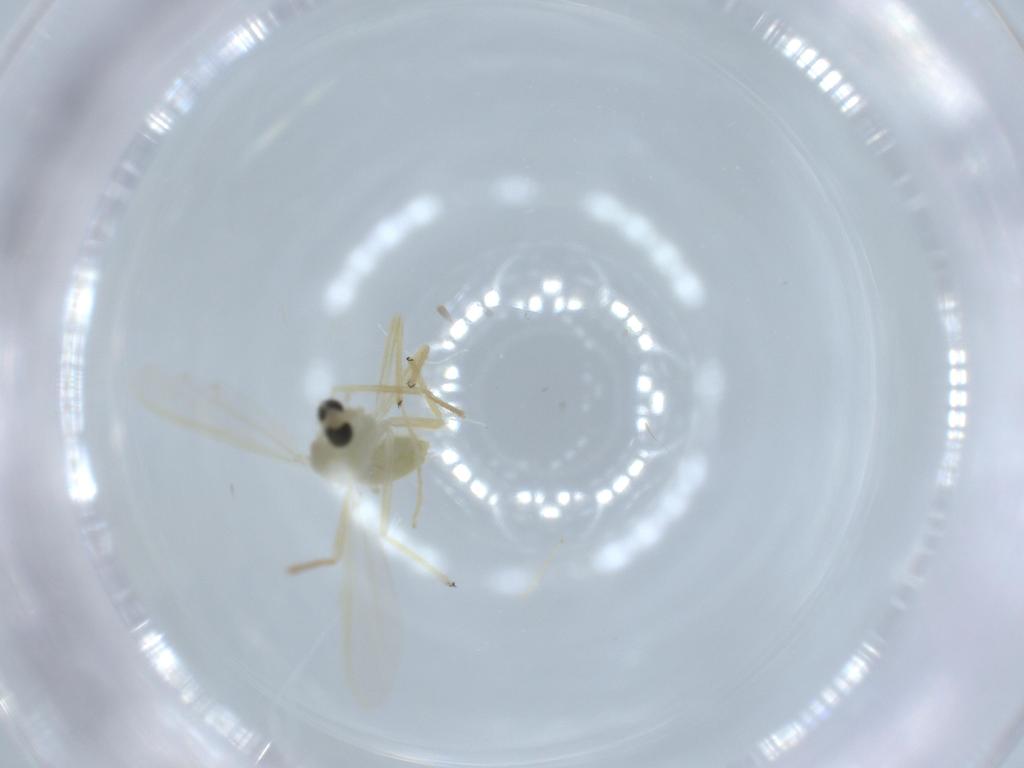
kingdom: Animalia
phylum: Arthropoda
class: Insecta
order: Diptera
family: Chironomidae
